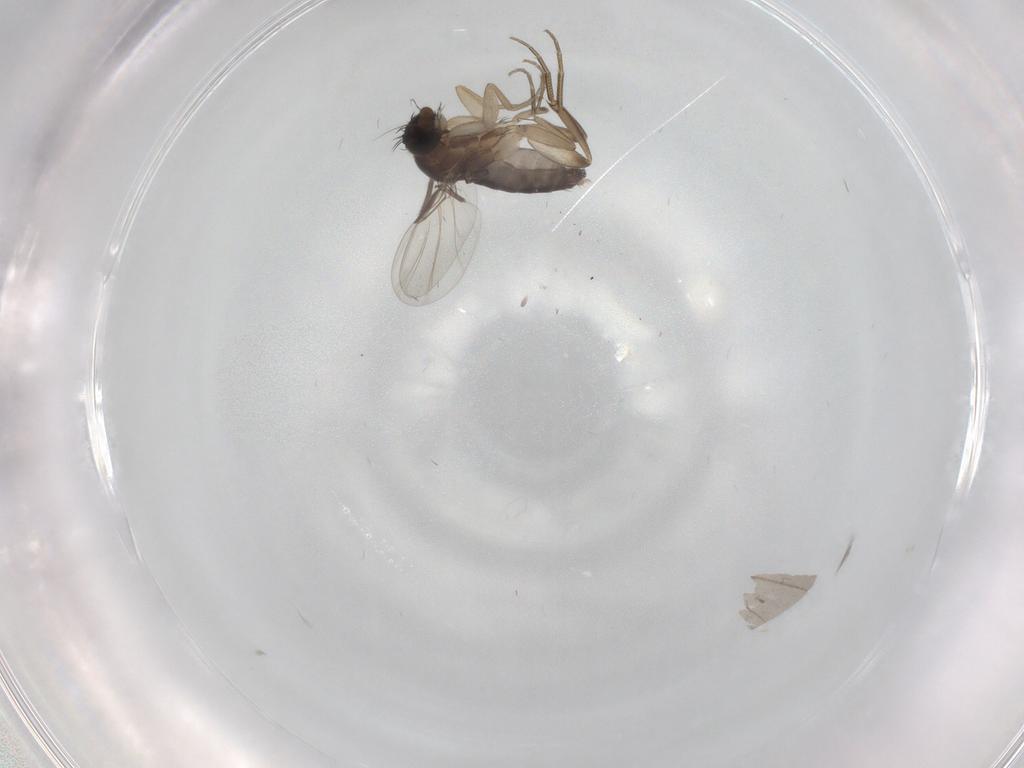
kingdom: Animalia
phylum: Arthropoda
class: Insecta
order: Diptera
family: Phoridae
